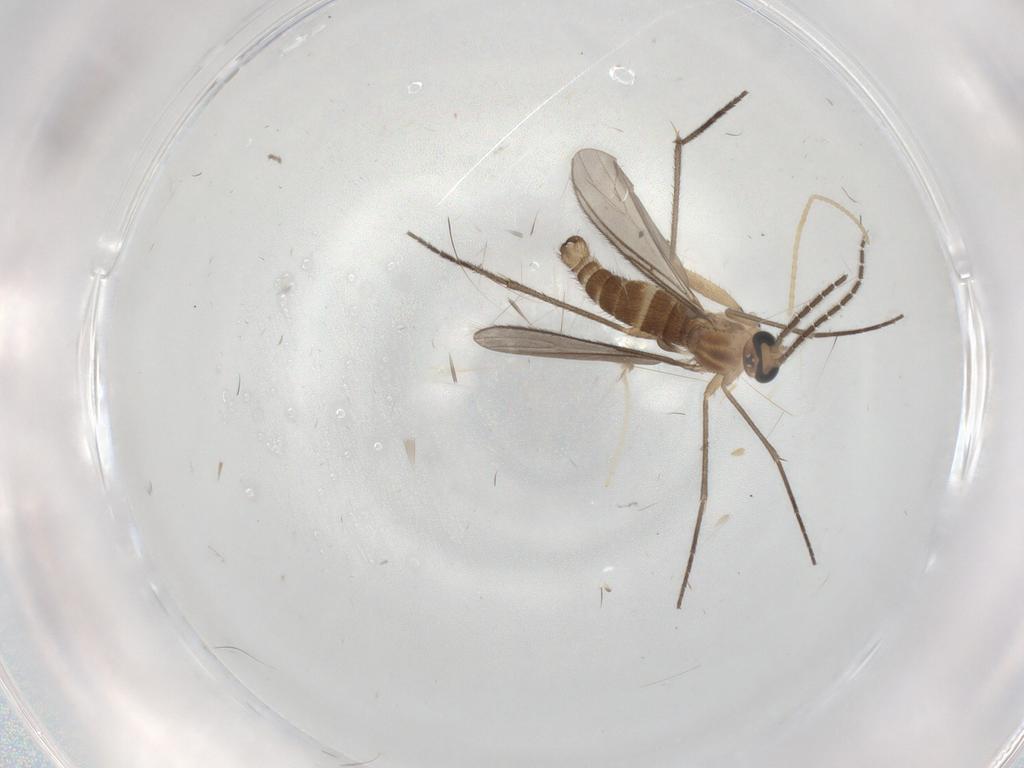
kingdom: Animalia
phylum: Arthropoda
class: Insecta
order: Diptera
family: Sciaridae
